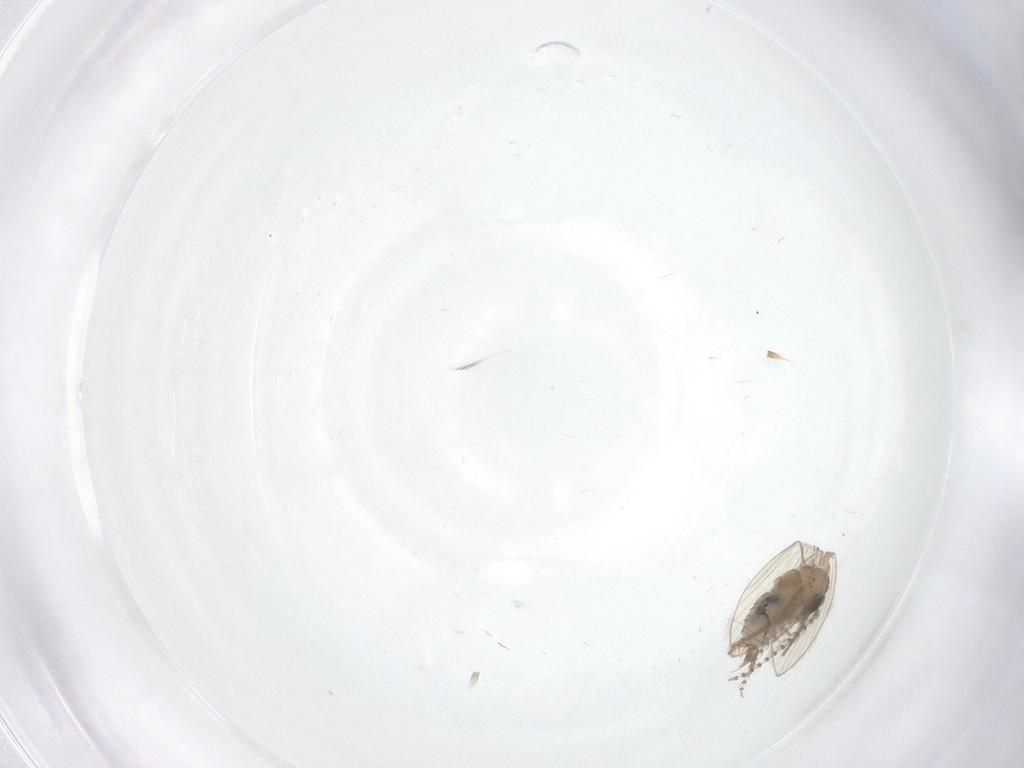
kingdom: Animalia
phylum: Arthropoda
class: Insecta
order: Diptera
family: Psychodidae
